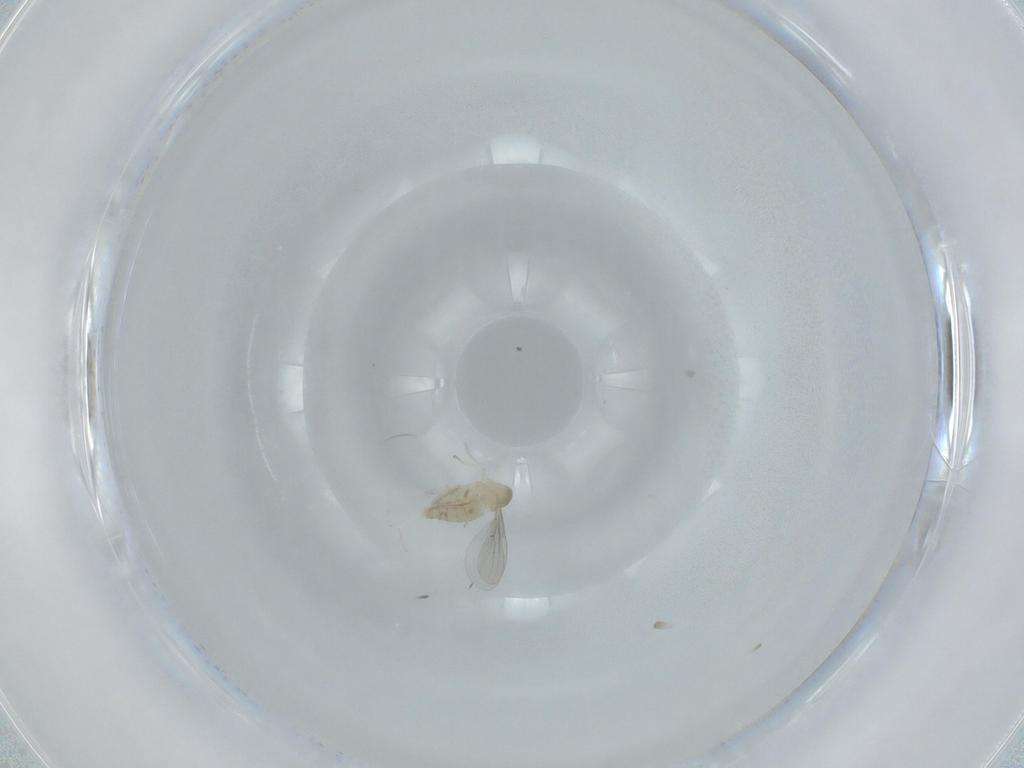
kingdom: Animalia
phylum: Arthropoda
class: Insecta
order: Diptera
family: Cecidomyiidae
